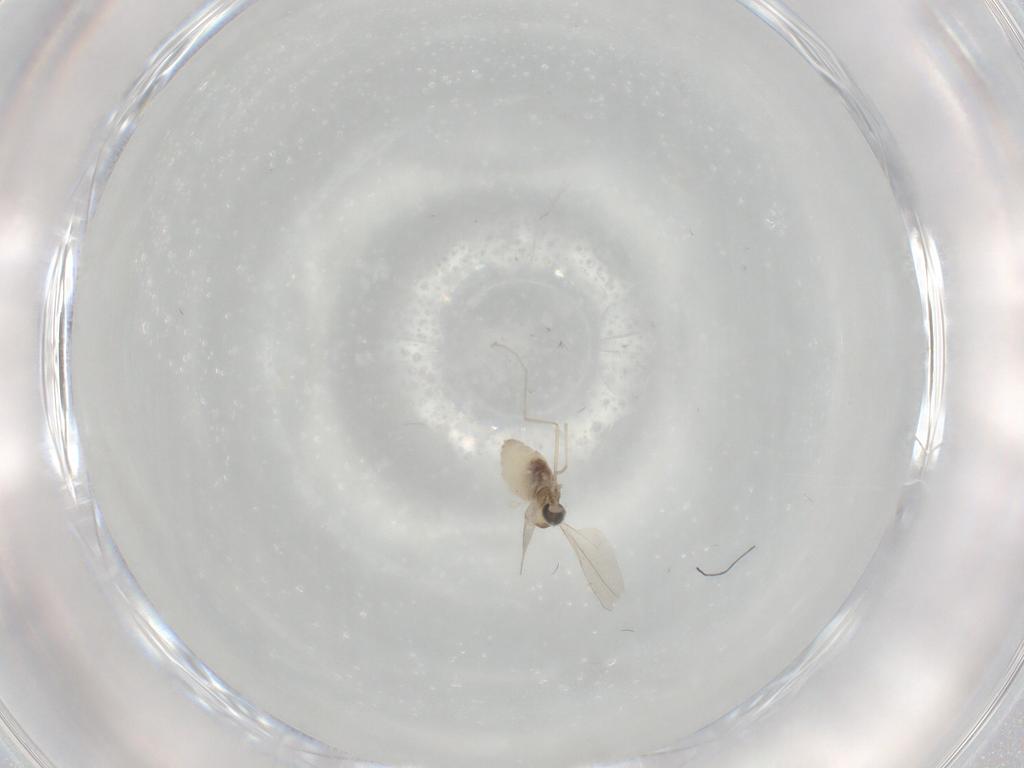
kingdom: Animalia
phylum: Arthropoda
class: Insecta
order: Diptera
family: Cecidomyiidae
